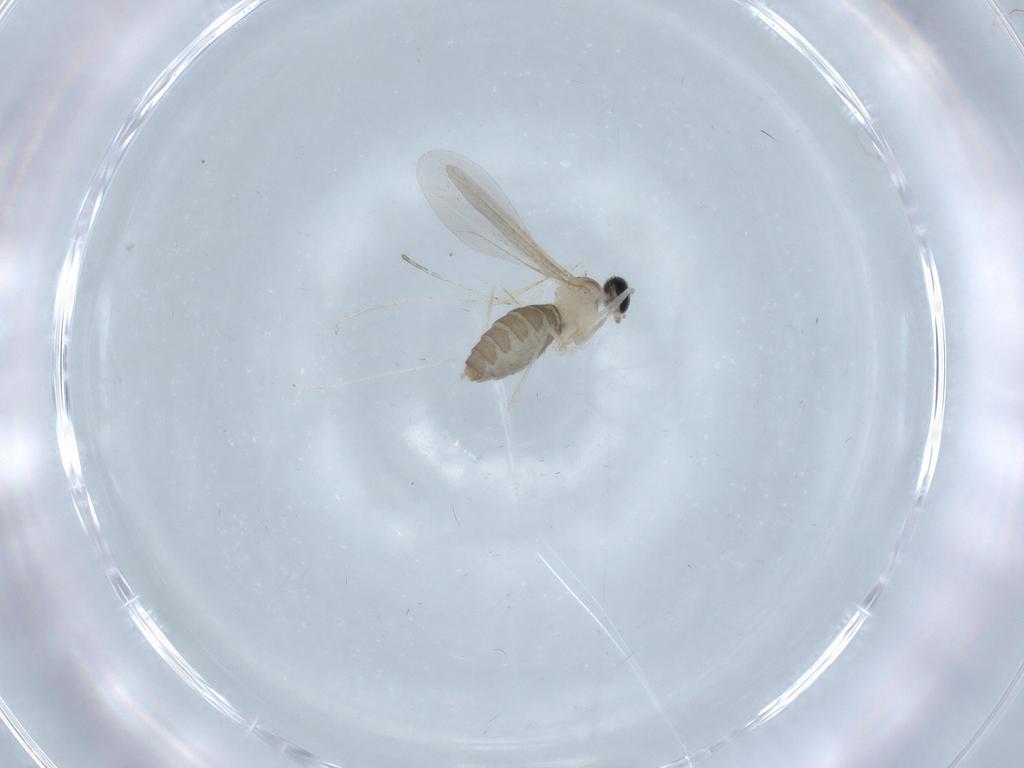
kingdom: Animalia
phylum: Arthropoda
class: Insecta
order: Diptera
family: Cecidomyiidae
